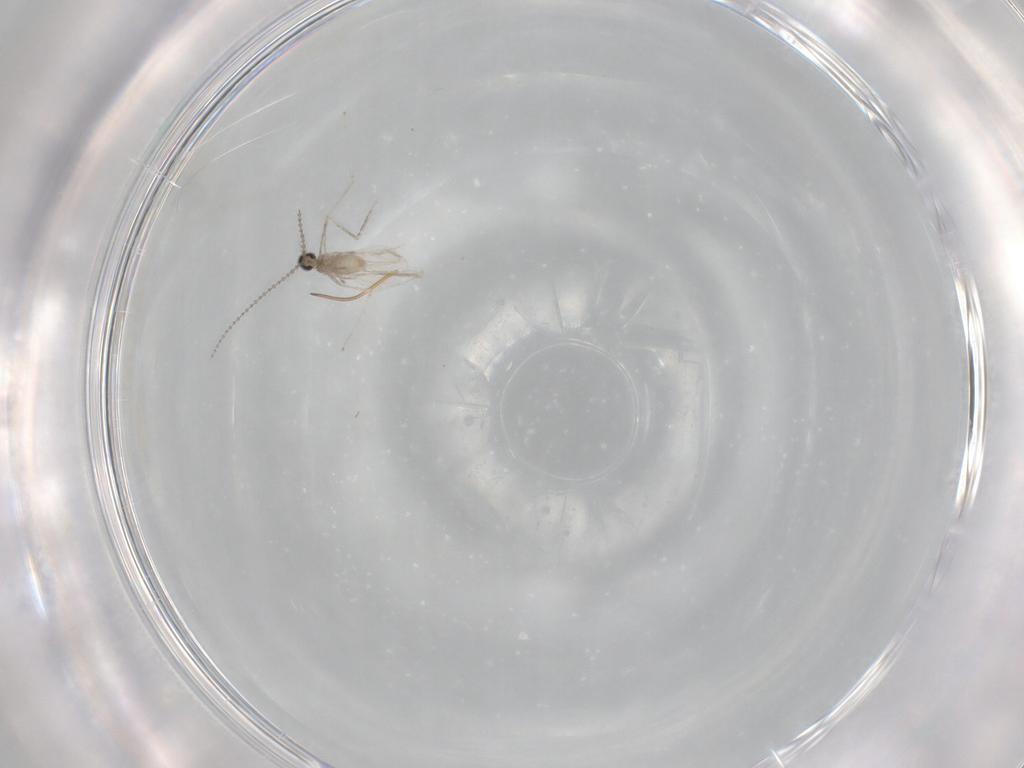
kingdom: Animalia
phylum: Arthropoda
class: Insecta
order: Diptera
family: Cecidomyiidae
